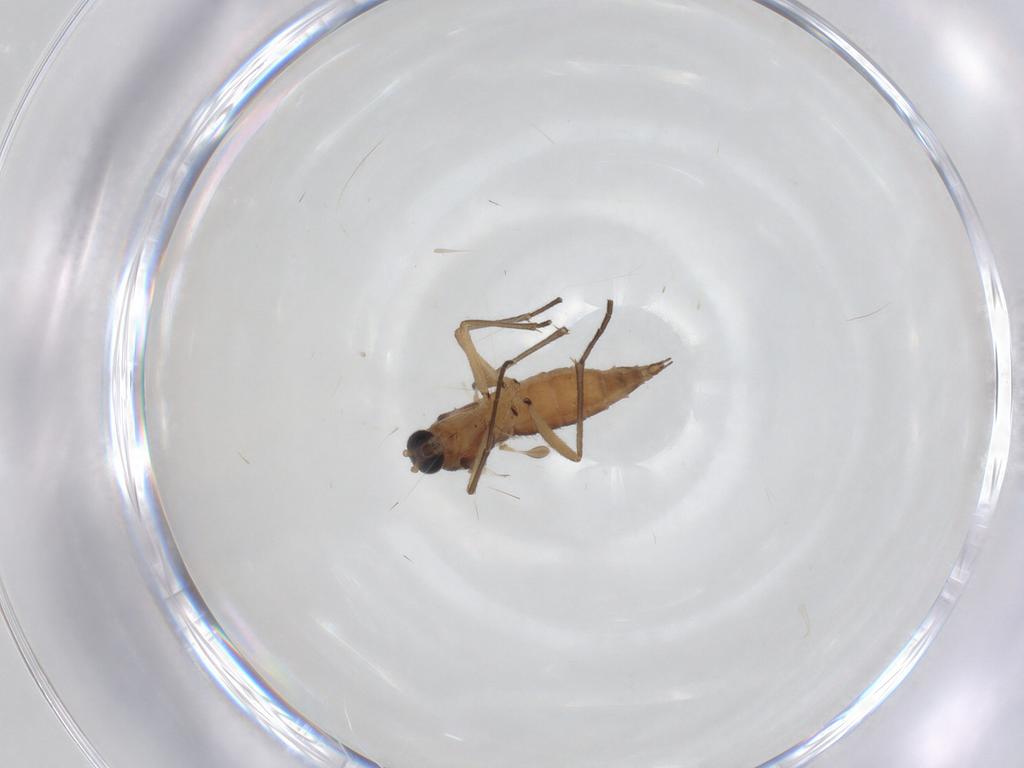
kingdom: Animalia
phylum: Arthropoda
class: Insecta
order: Diptera
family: Sciaridae
